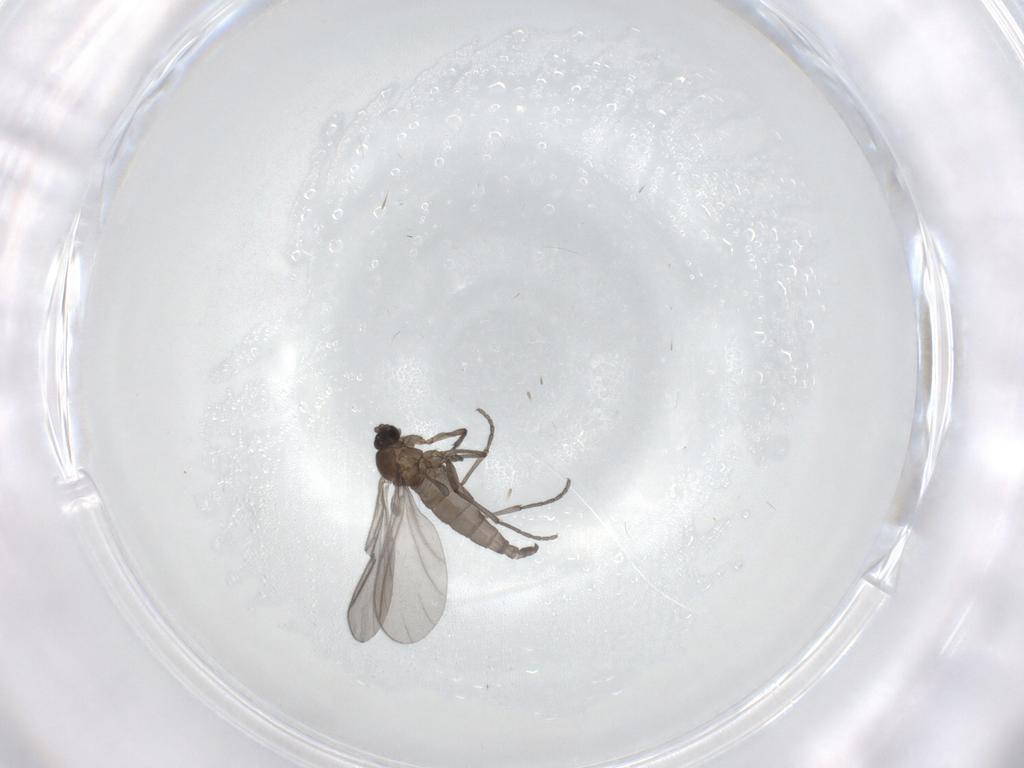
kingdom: Animalia
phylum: Arthropoda
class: Insecta
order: Diptera
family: Sciaridae
